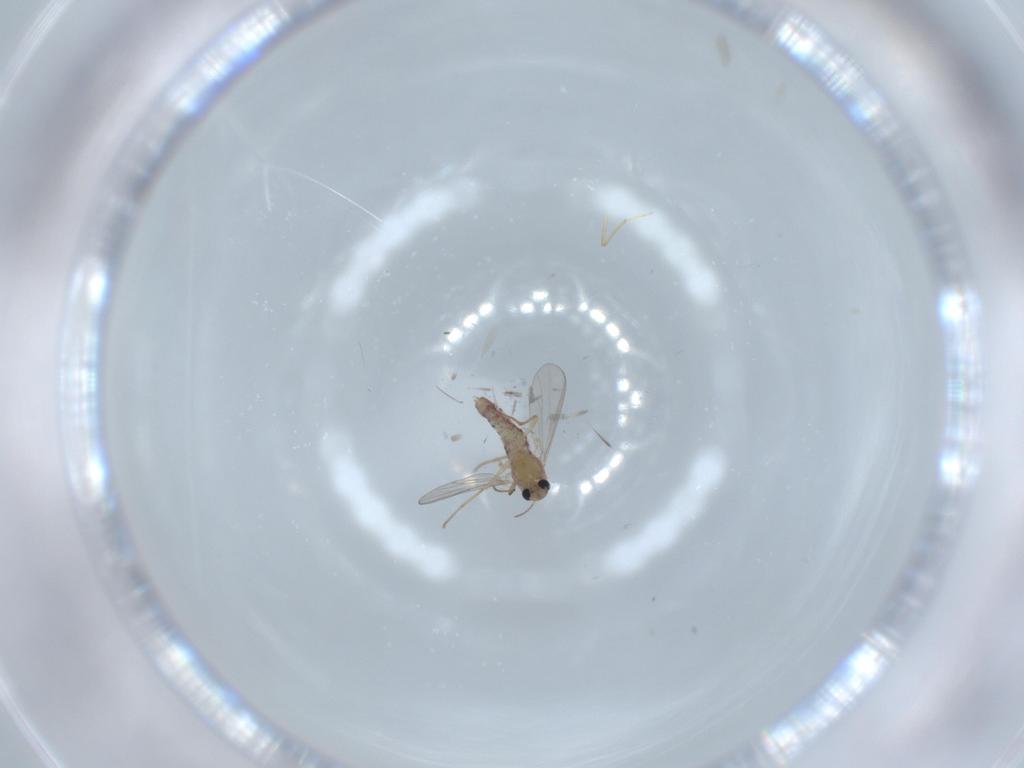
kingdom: Animalia
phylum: Arthropoda
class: Insecta
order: Diptera
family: Chironomidae
